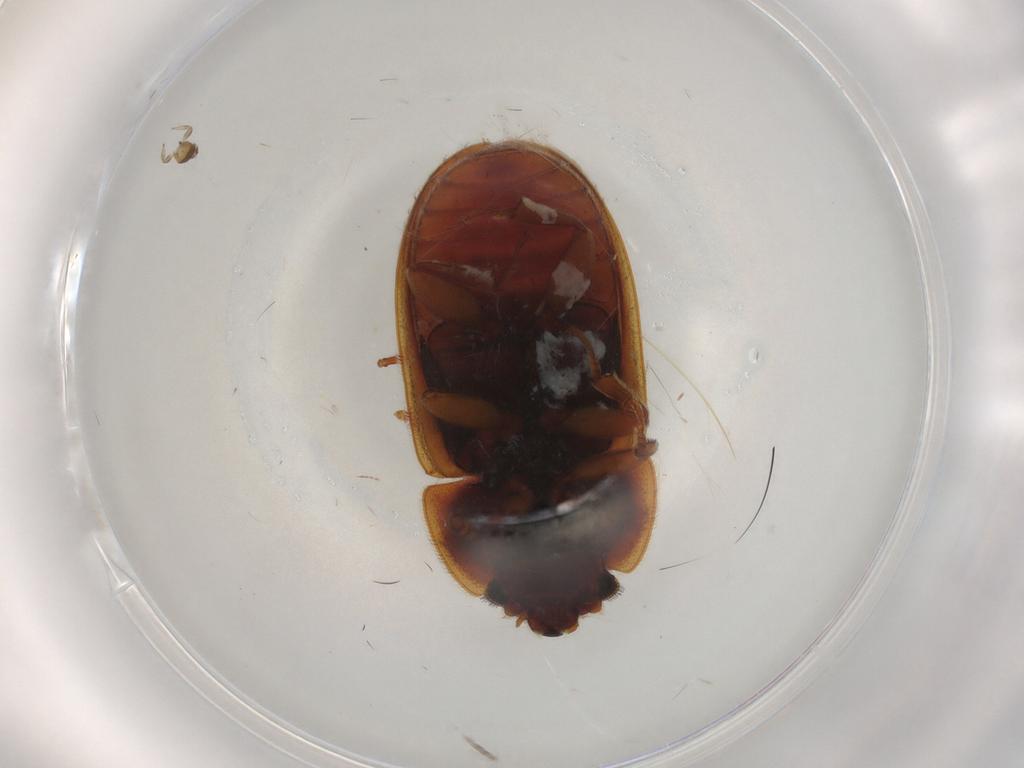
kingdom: Animalia
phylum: Arthropoda
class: Insecta
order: Coleoptera
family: Nitidulidae
